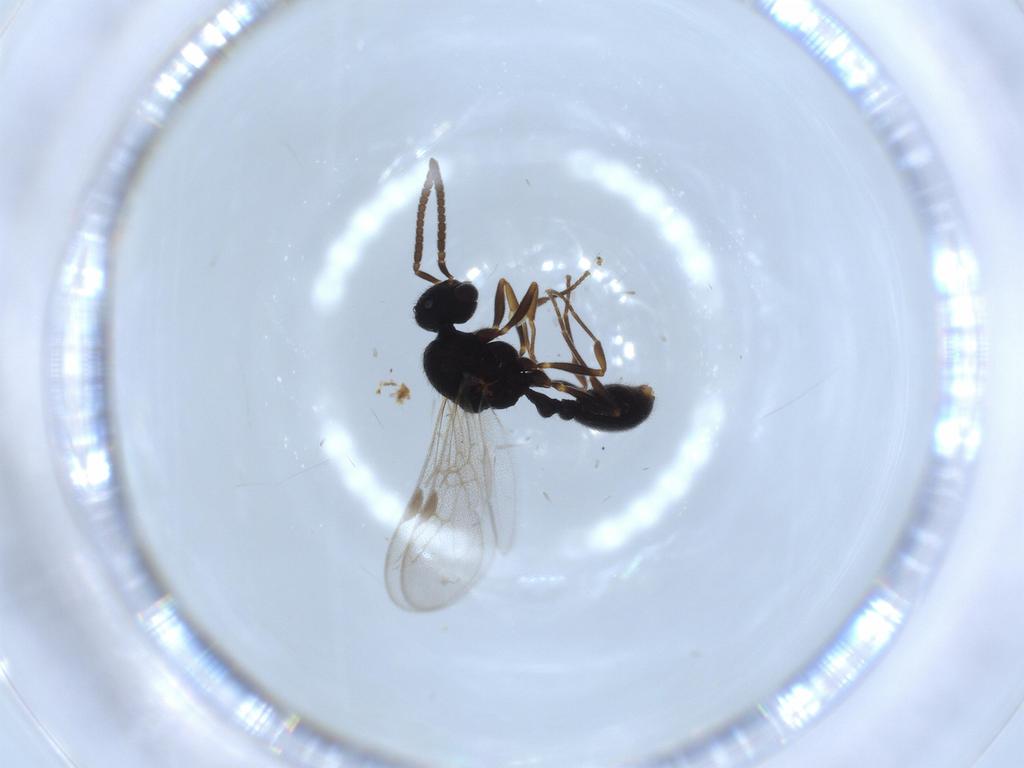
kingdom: Animalia
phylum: Arthropoda
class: Insecta
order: Hymenoptera
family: Formicidae
